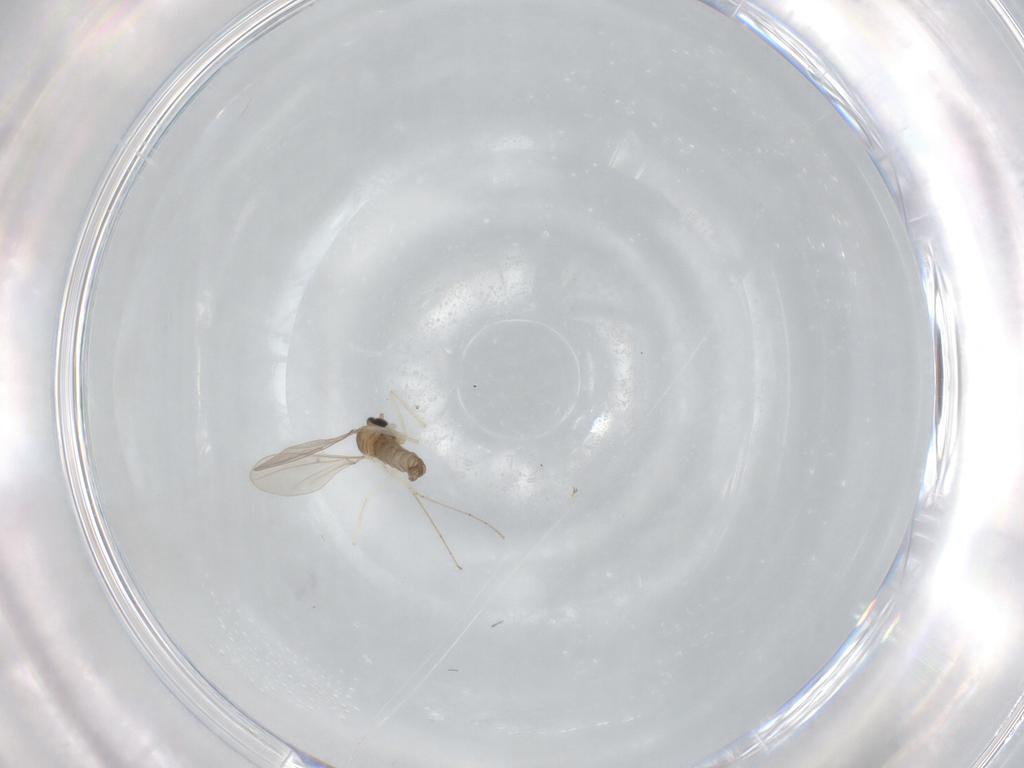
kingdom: Animalia
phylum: Arthropoda
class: Insecta
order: Diptera
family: Cecidomyiidae
